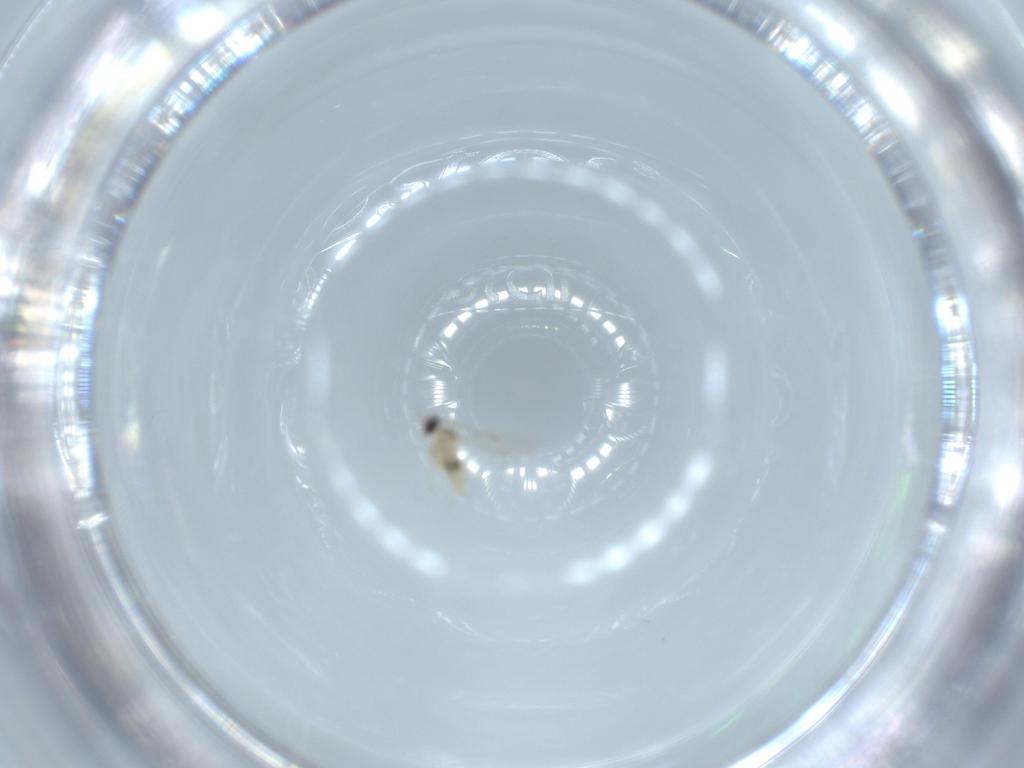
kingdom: Animalia
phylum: Arthropoda
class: Insecta
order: Diptera
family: Cecidomyiidae
